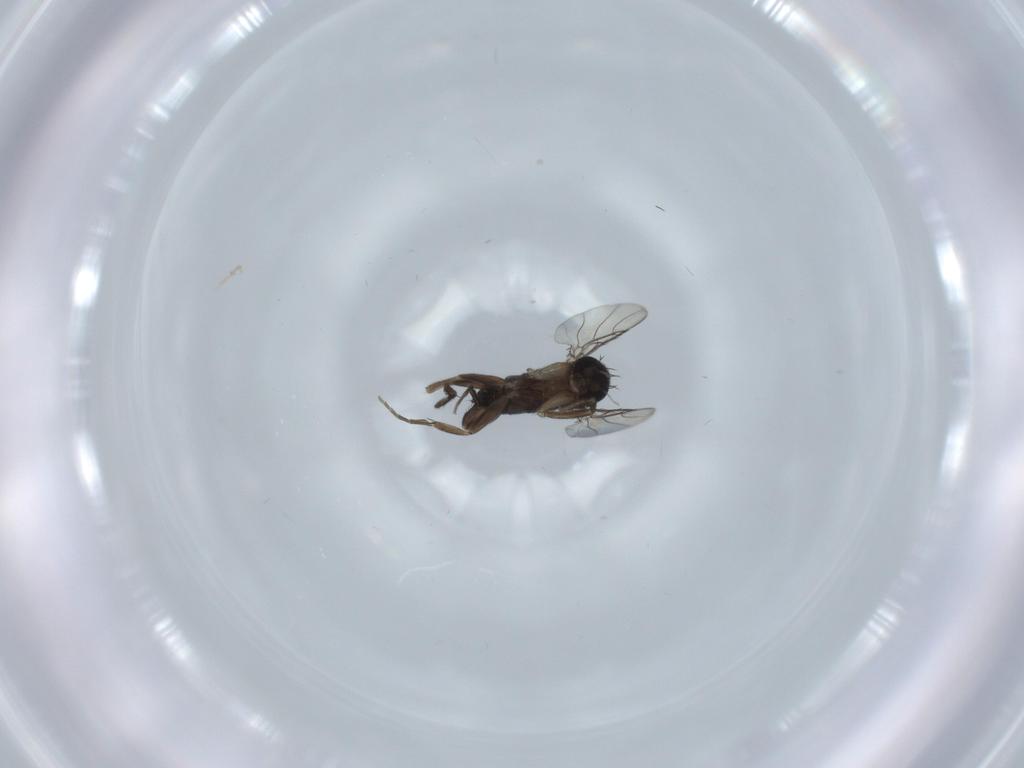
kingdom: Animalia
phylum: Arthropoda
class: Insecta
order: Diptera
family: Phoridae
